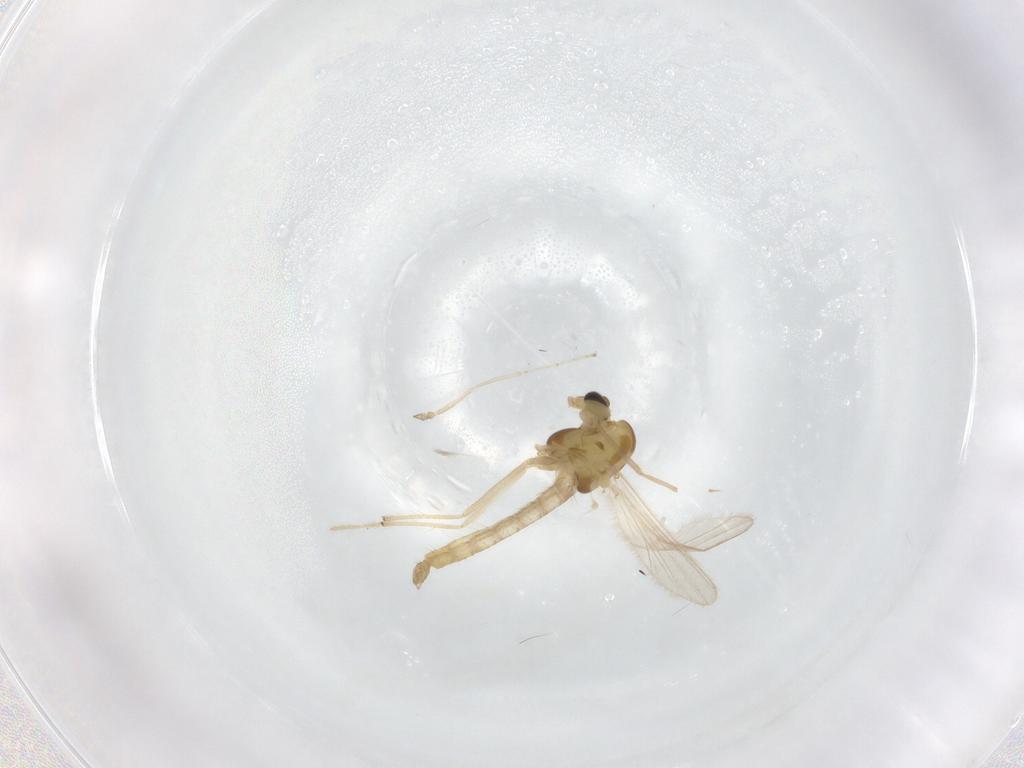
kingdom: Animalia
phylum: Arthropoda
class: Insecta
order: Diptera
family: Chironomidae
